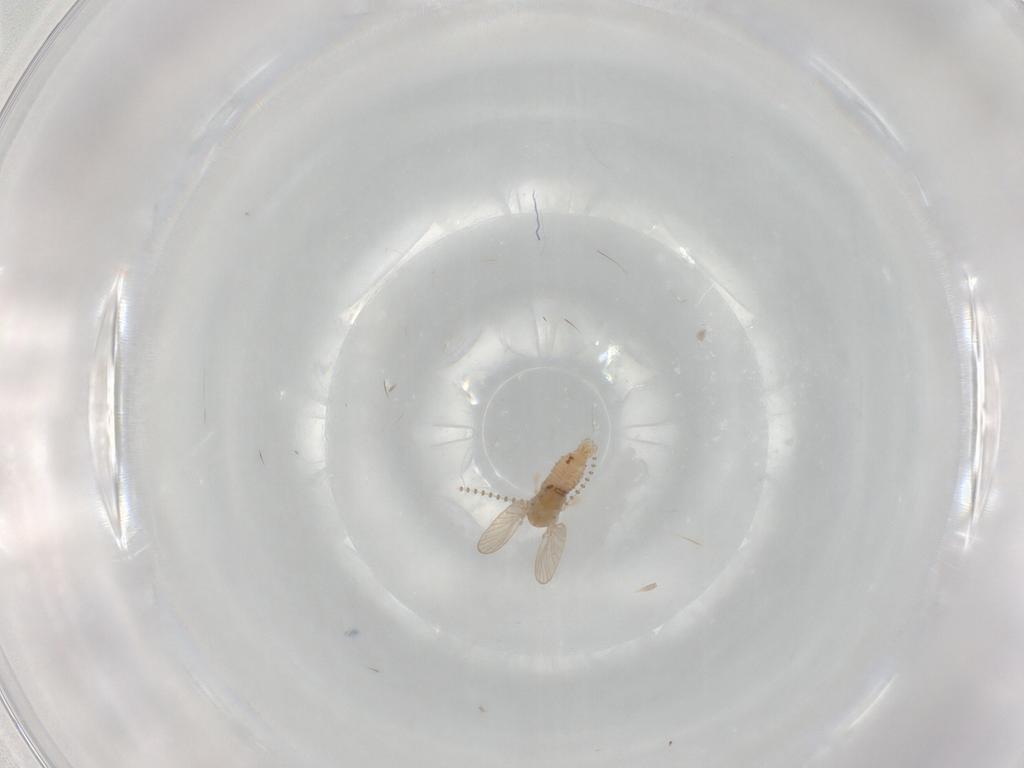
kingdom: Animalia
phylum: Arthropoda
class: Insecta
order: Diptera
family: Psychodidae
